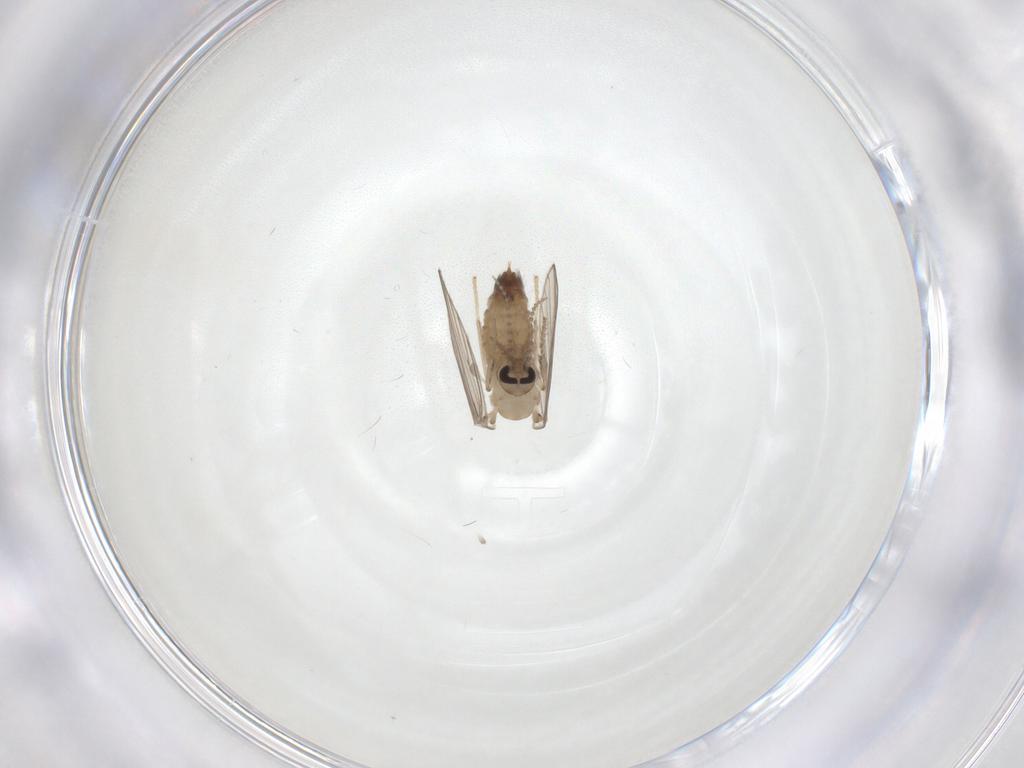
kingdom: Animalia
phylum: Arthropoda
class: Insecta
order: Diptera
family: Psychodidae
